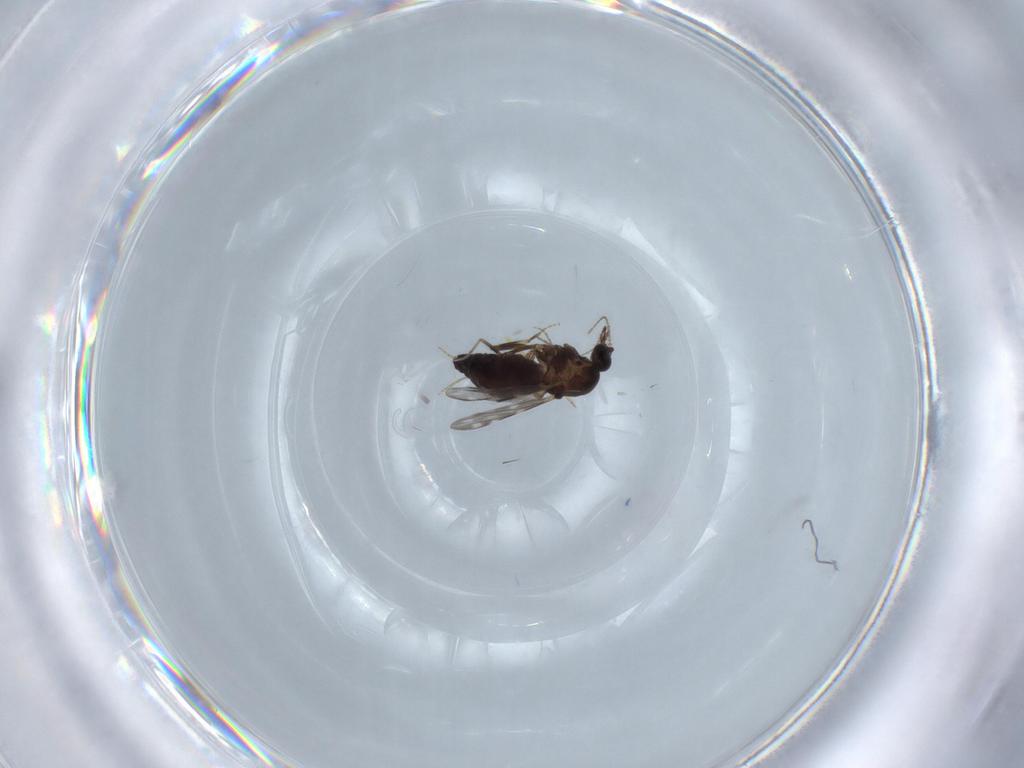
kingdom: Animalia
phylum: Arthropoda
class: Insecta
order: Diptera
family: Ceratopogonidae
